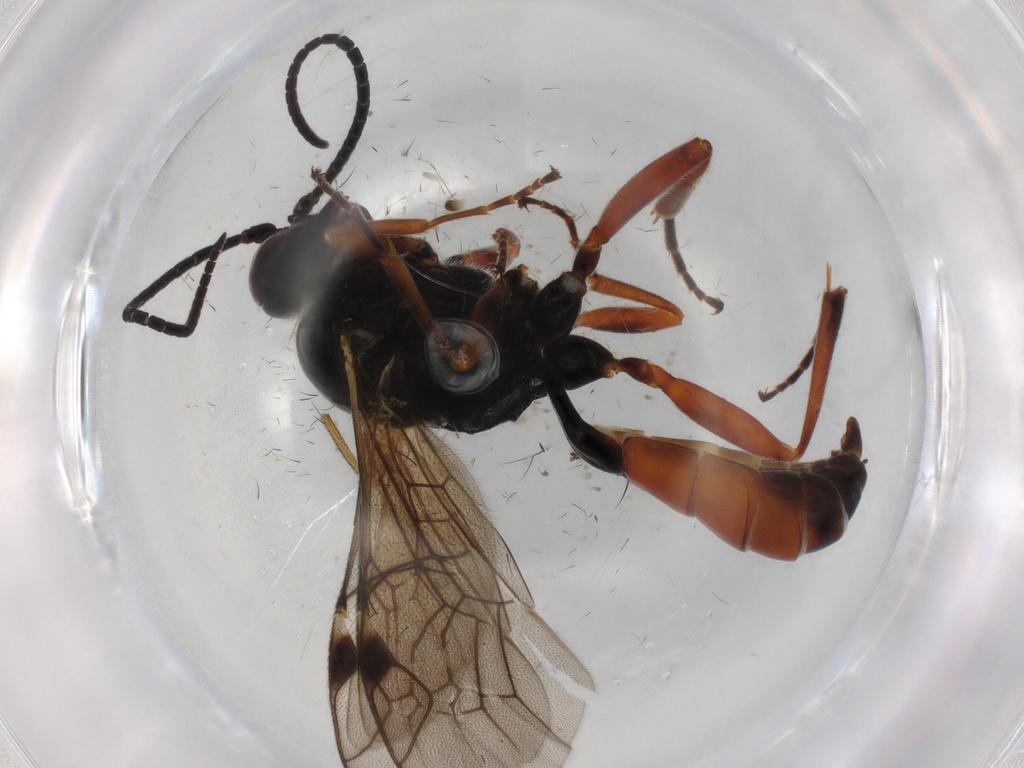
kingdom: Animalia
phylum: Arthropoda
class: Insecta
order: Hymenoptera
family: Ichneumonidae
